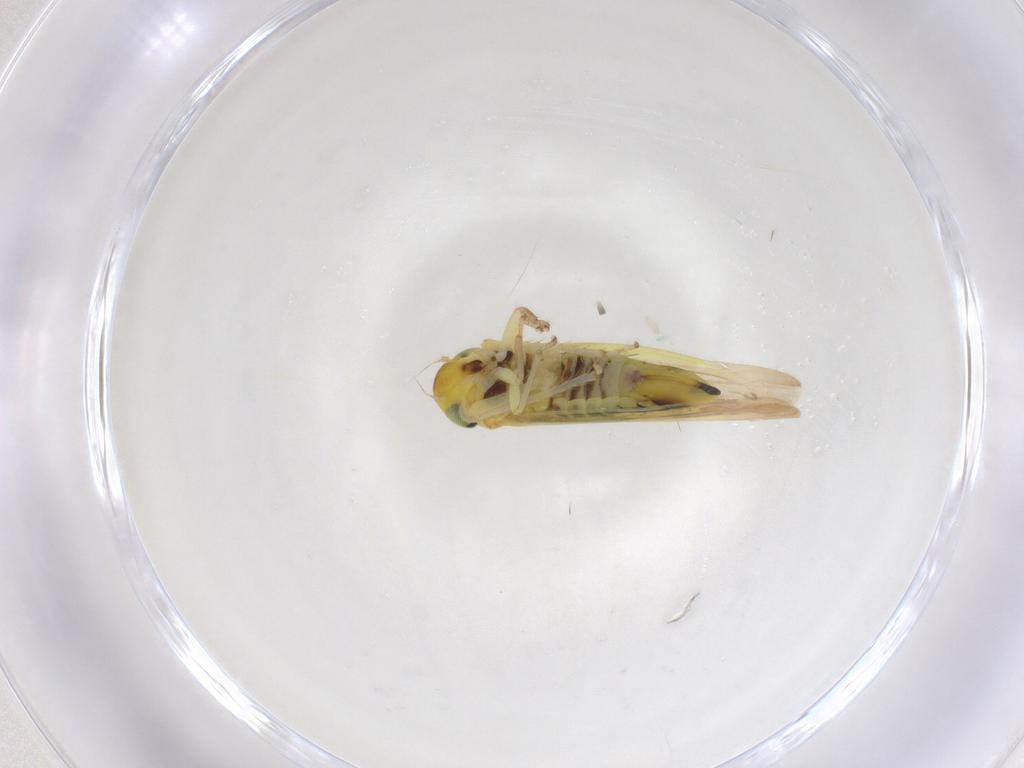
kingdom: Animalia
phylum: Arthropoda
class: Insecta
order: Hemiptera
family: Cicadellidae
